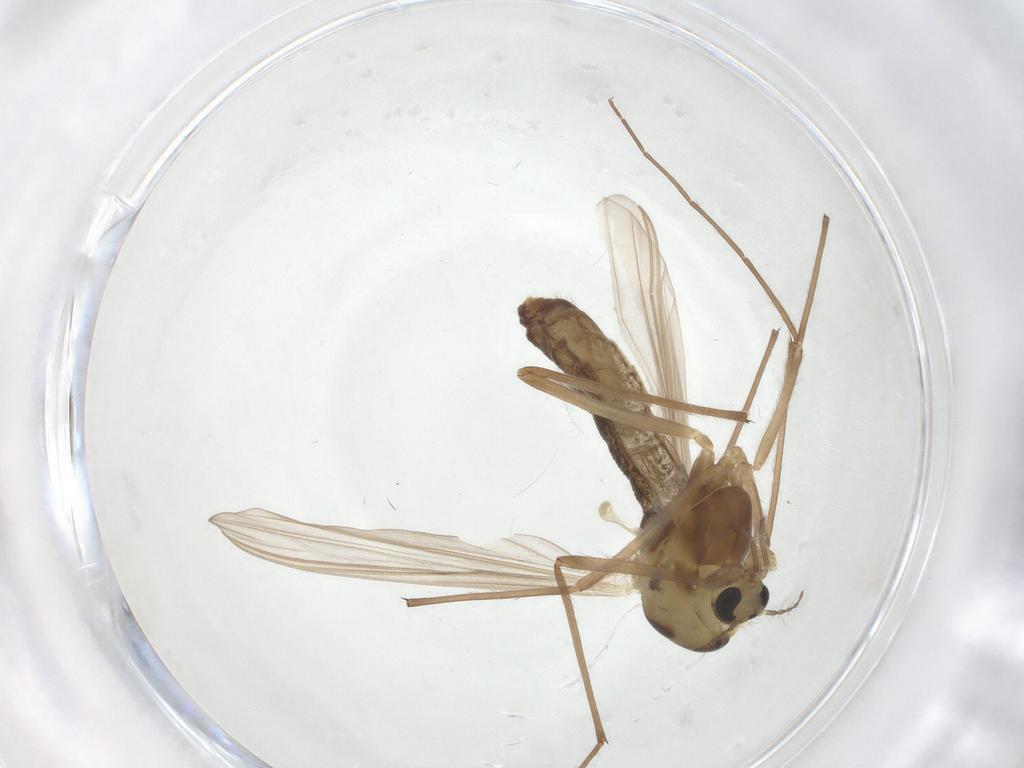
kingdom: Animalia
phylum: Arthropoda
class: Insecta
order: Diptera
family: Chironomidae
